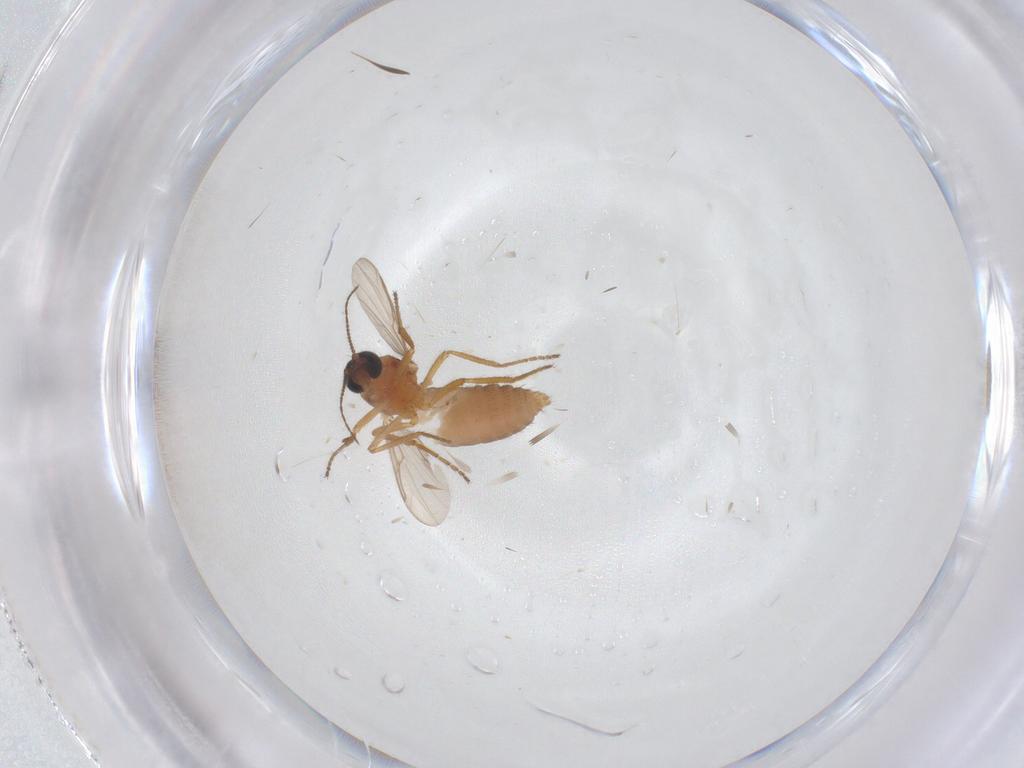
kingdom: Animalia
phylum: Arthropoda
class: Insecta
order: Diptera
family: Ceratopogonidae
